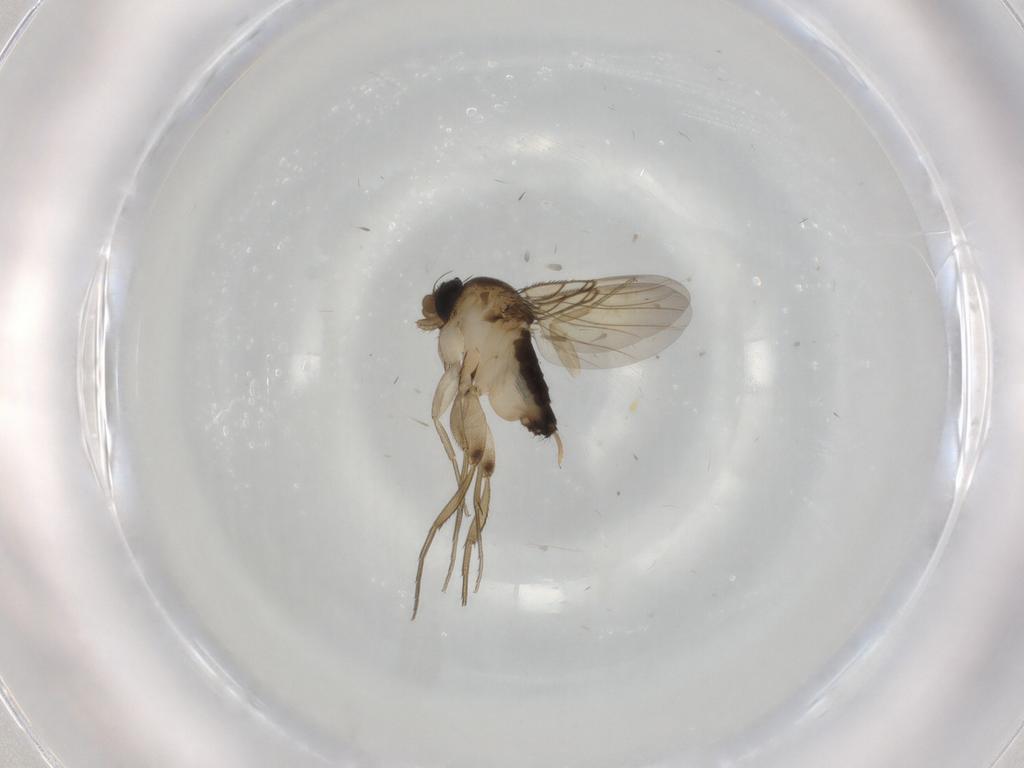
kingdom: Animalia
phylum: Arthropoda
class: Insecta
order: Diptera
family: Phoridae
